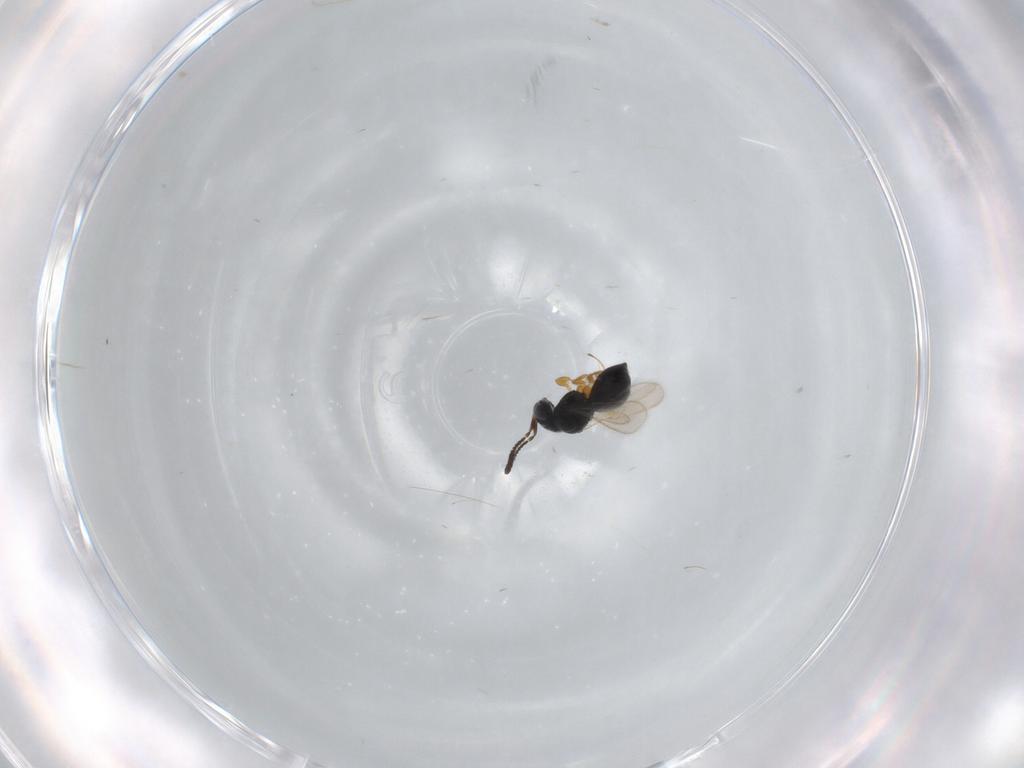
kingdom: Animalia
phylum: Arthropoda
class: Insecta
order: Hymenoptera
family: Scelionidae
